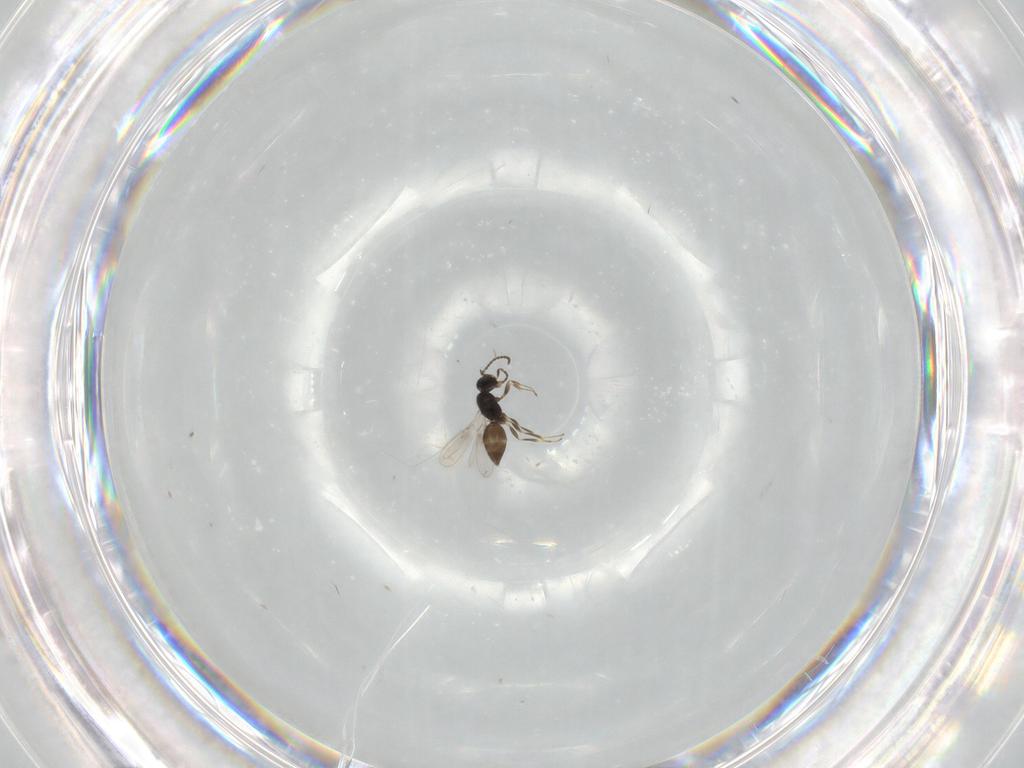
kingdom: Animalia
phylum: Arthropoda
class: Insecta
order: Hymenoptera
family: Scelionidae
